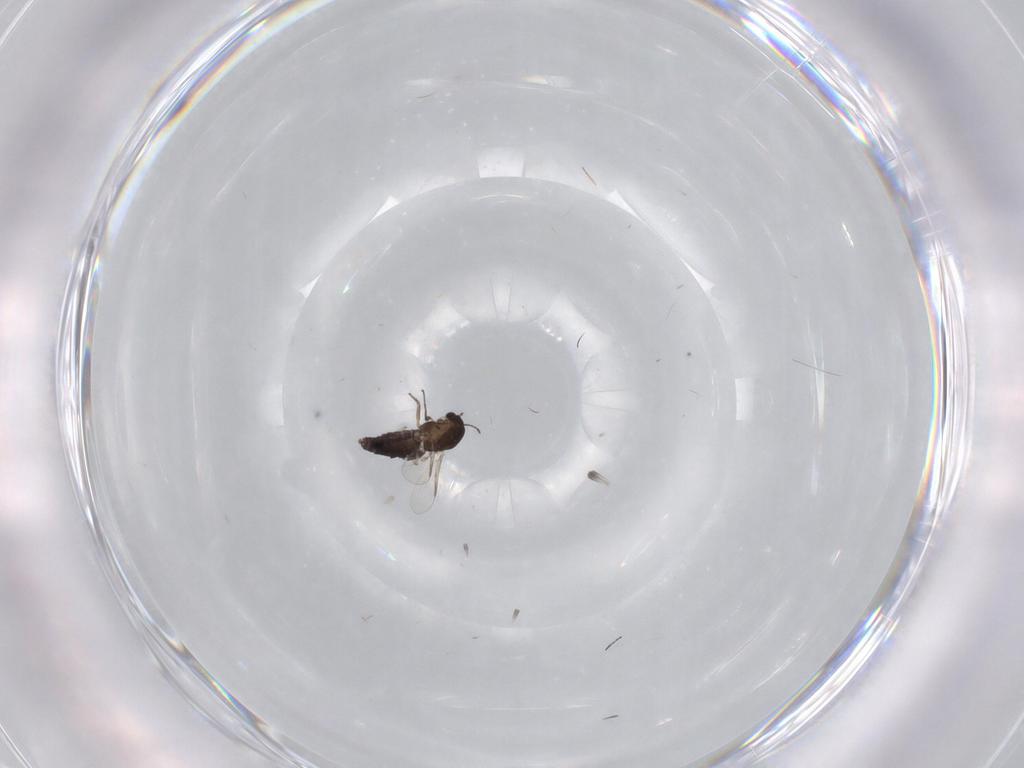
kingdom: Animalia
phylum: Arthropoda
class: Insecta
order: Diptera
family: Chironomidae
